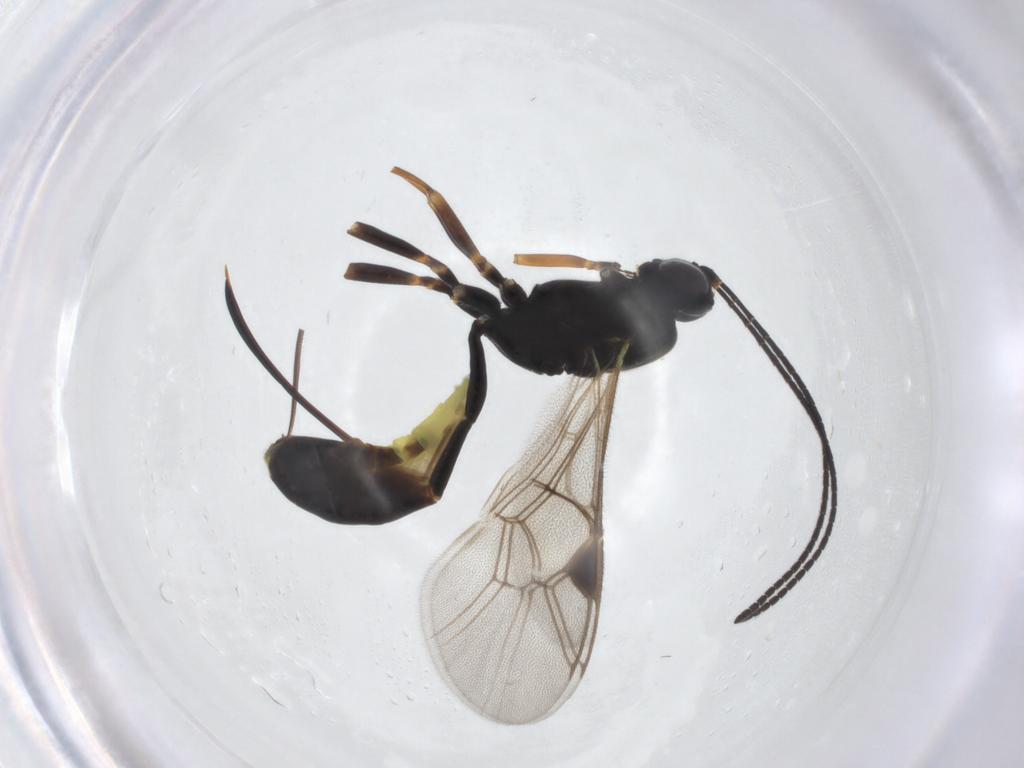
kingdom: Animalia
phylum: Arthropoda
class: Insecta
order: Hymenoptera
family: Ichneumonidae
